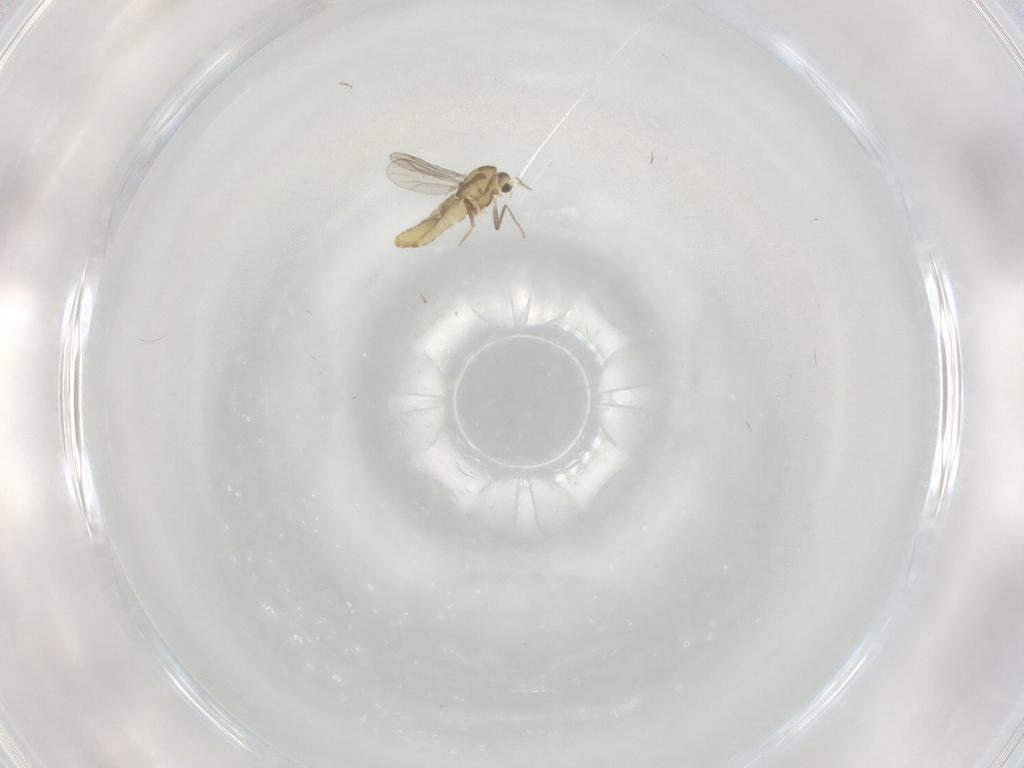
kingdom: Animalia
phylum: Arthropoda
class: Insecta
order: Diptera
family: Chironomidae
